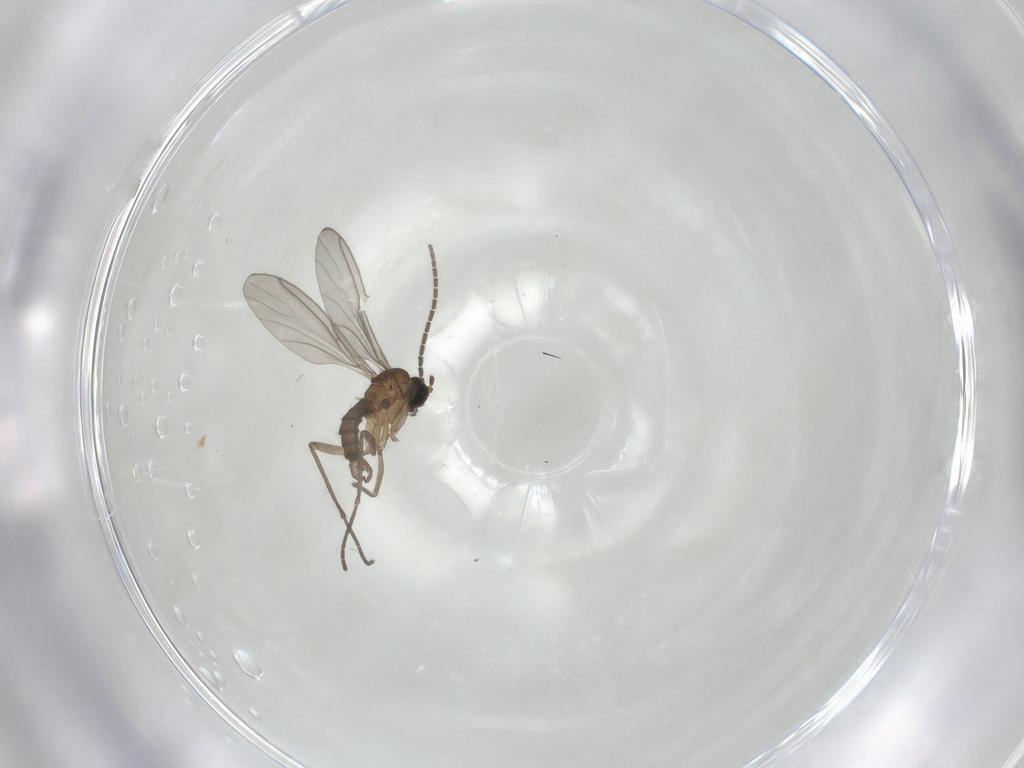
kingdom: Animalia
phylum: Arthropoda
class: Insecta
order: Diptera
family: Sciaridae
